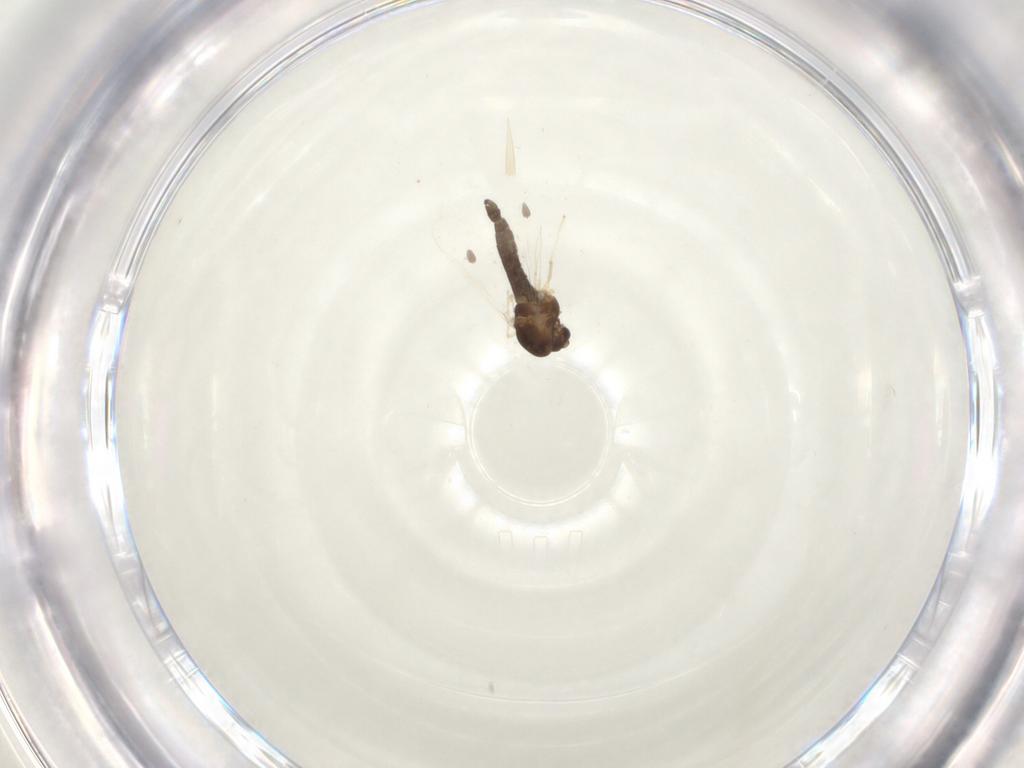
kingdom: Animalia
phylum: Arthropoda
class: Insecta
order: Diptera
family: Chironomidae
